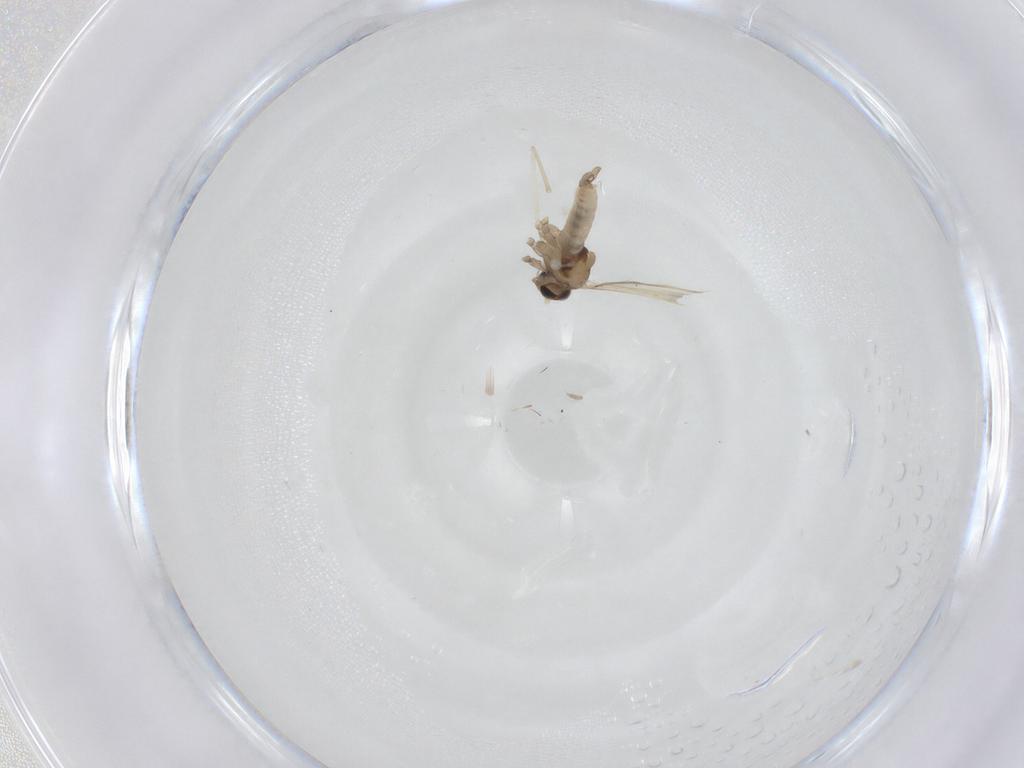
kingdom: Animalia
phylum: Arthropoda
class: Insecta
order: Diptera
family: Cecidomyiidae
